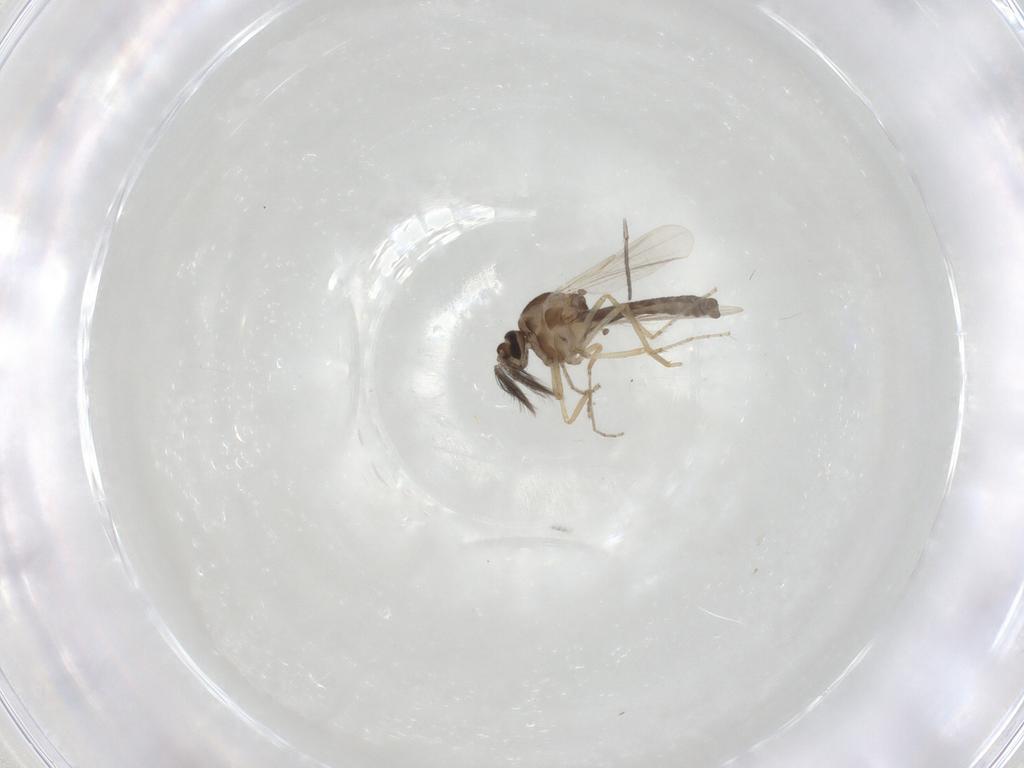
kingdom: Animalia
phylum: Arthropoda
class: Insecta
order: Diptera
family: Ceratopogonidae
